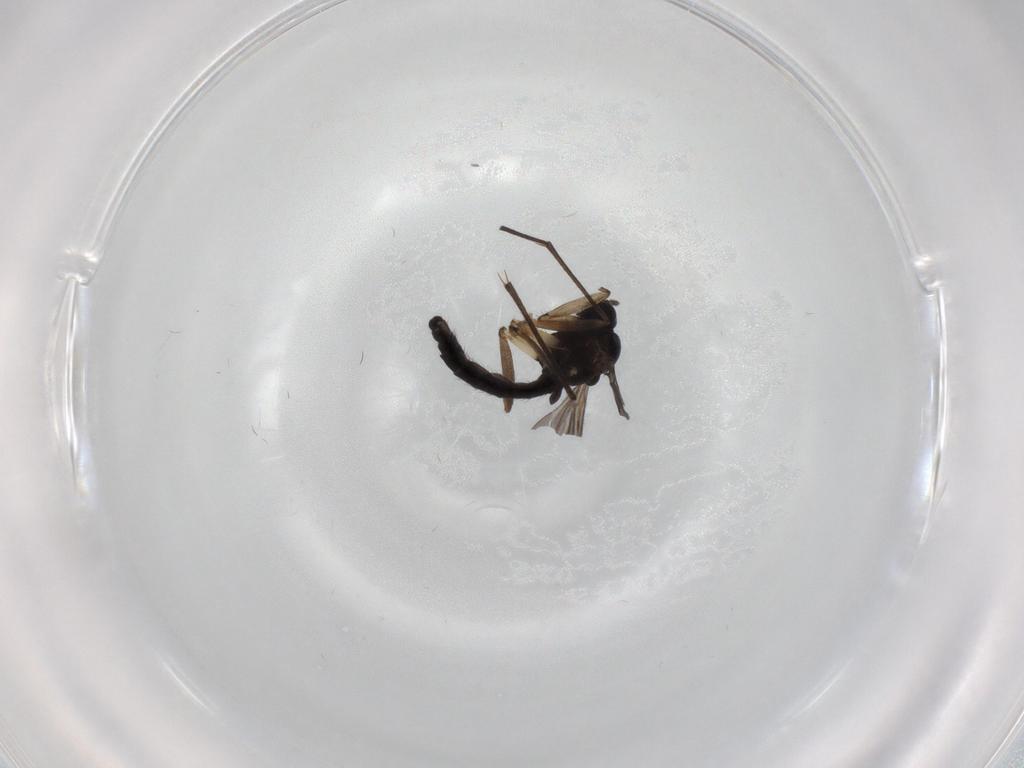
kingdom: Animalia
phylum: Arthropoda
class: Insecta
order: Diptera
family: Sciaridae
